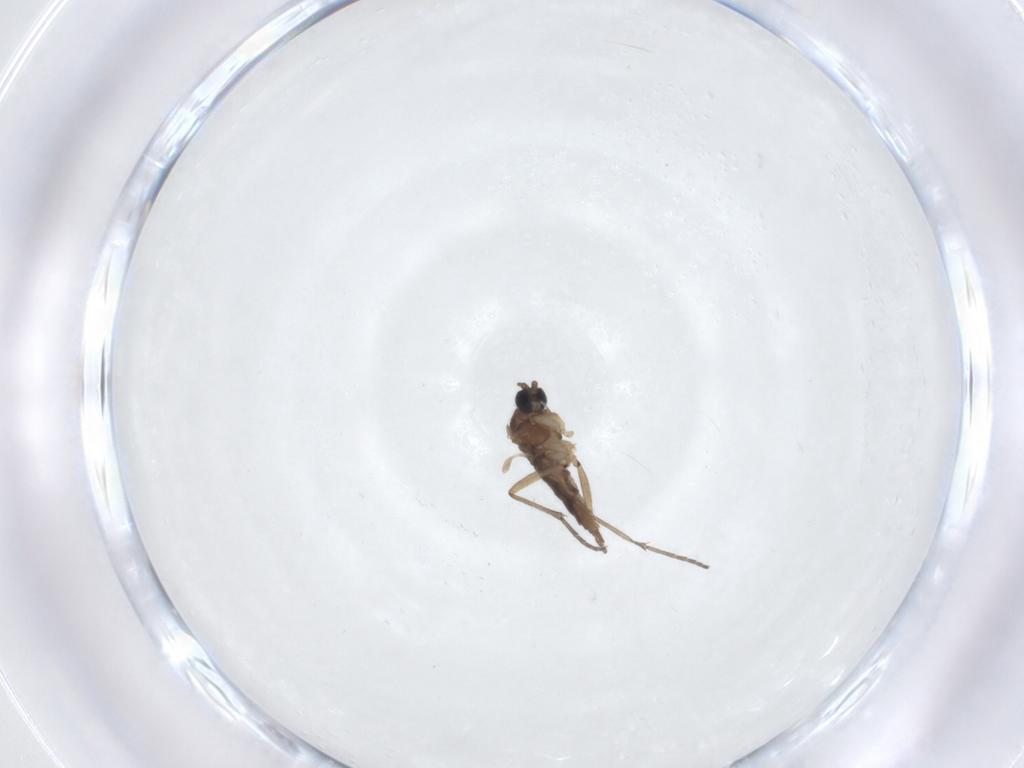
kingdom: Animalia
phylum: Arthropoda
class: Insecta
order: Diptera
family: Sciaridae
